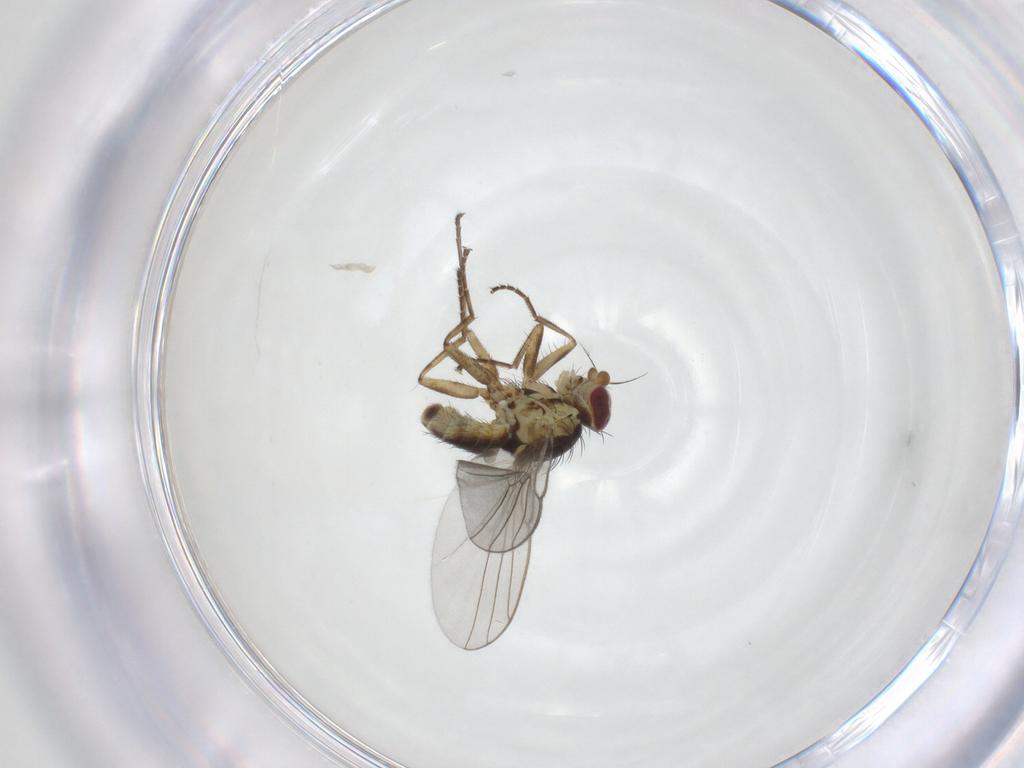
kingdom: Animalia
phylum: Arthropoda
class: Insecta
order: Diptera
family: Agromyzidae
